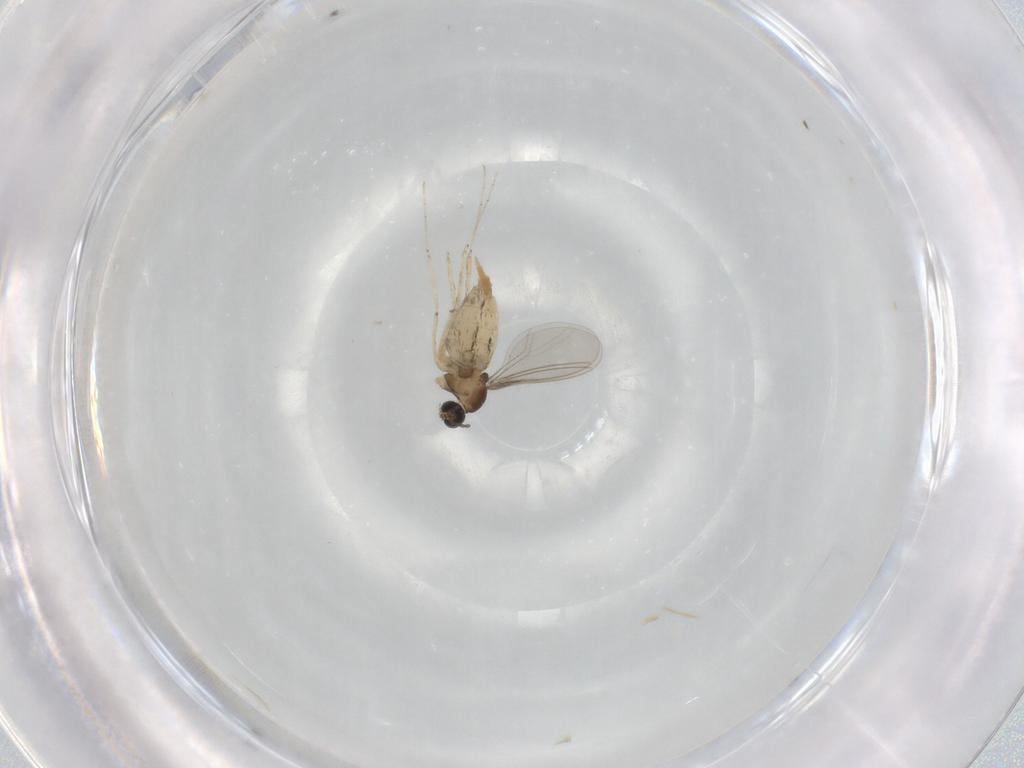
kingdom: Animalia
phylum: Arthropoda
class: Insecta
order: Diptera
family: Cecidomyiidae
